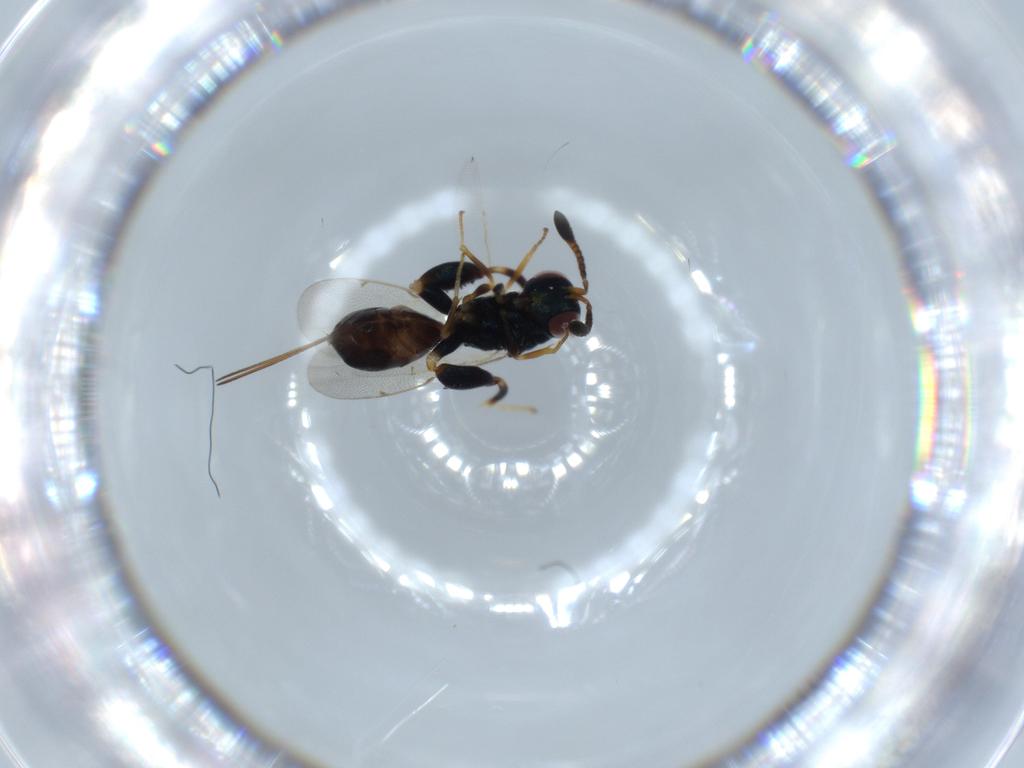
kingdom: Animalia
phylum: Arthropoda
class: Insecta
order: Hymenoptera
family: Torymidae
